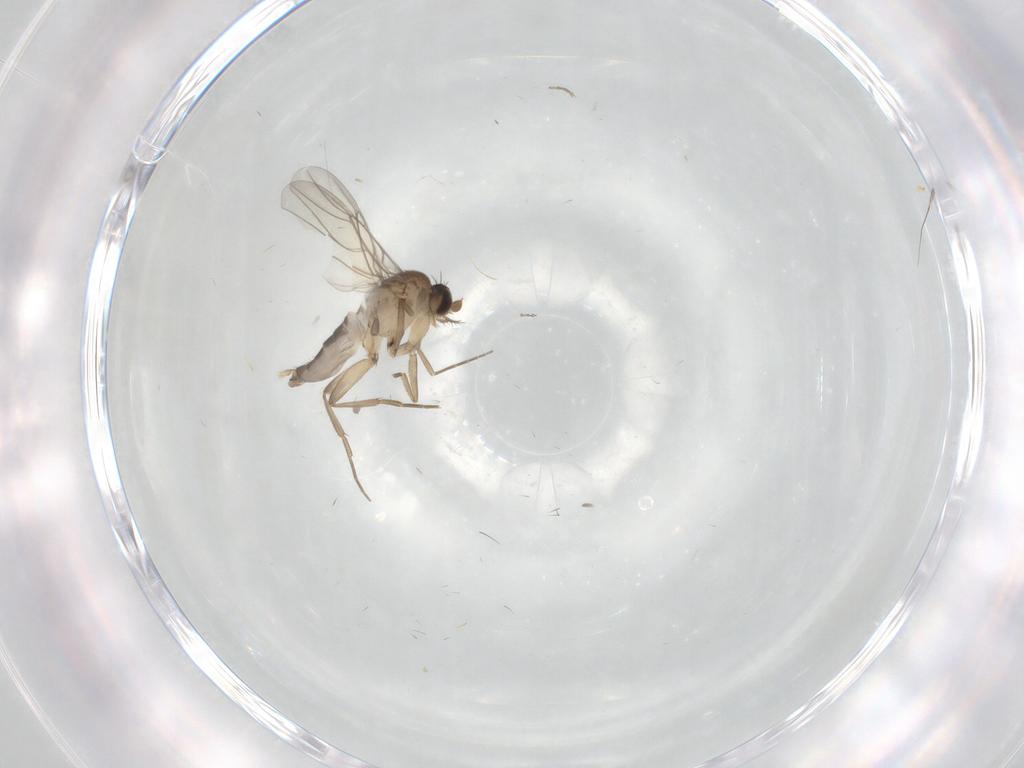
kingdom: Animalia
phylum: Arthropoda
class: Insecta
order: Diptera
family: Phoridae
